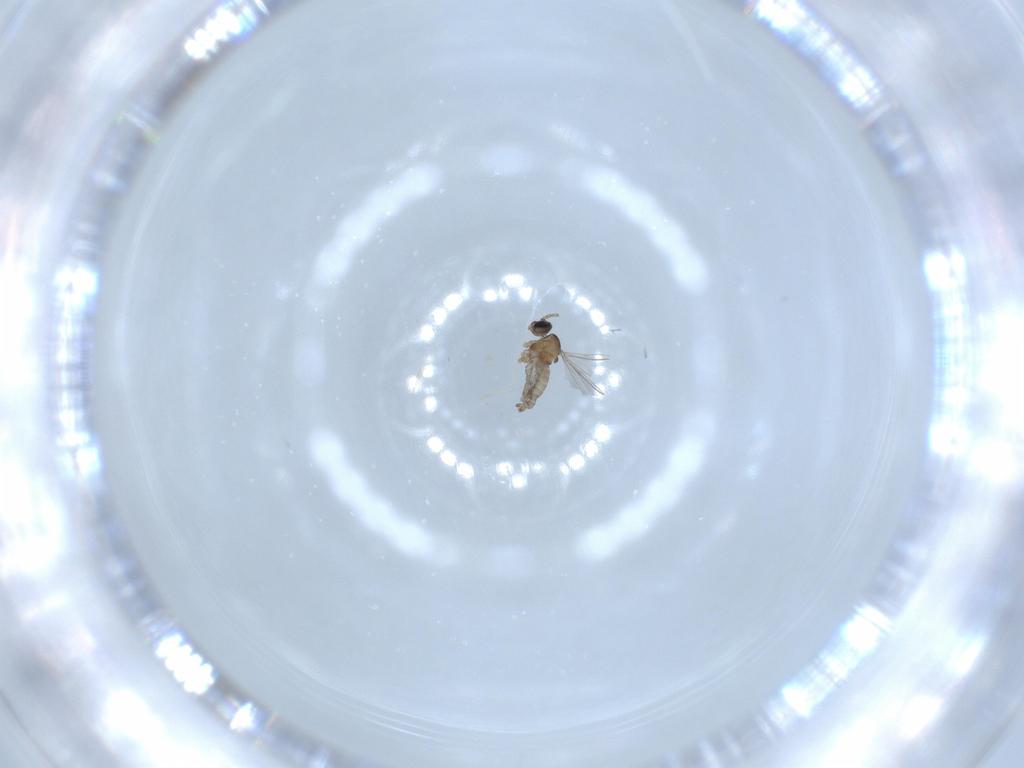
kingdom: Animalia
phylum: Arthropoda
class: Insecta
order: Diptera
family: Cecidomyiidae
